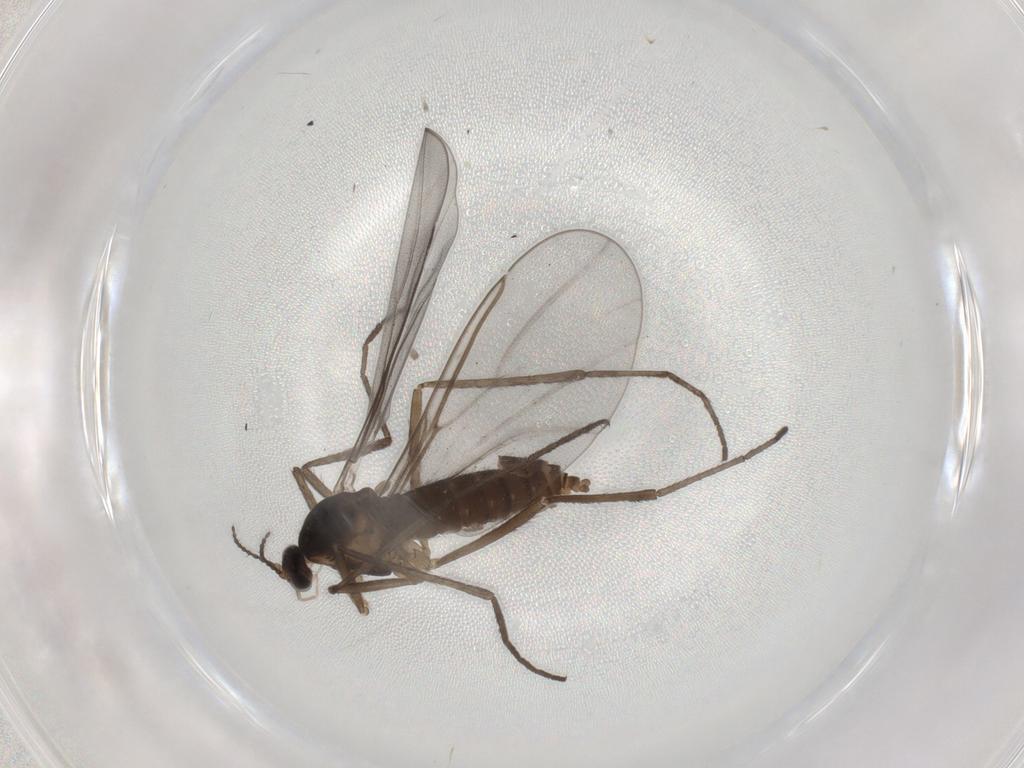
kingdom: Animalia
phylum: Arthropoda
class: Insecta
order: Diptera
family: Cecidomyiidae
